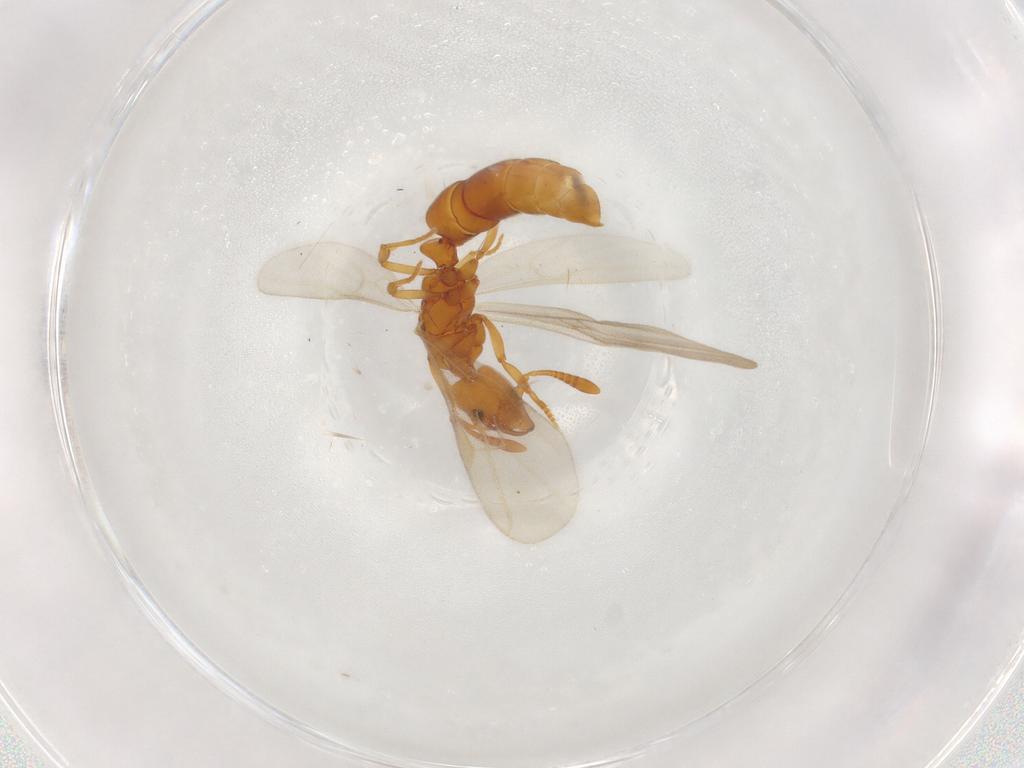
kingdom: Animalia
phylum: Arthropoda
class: Insecta
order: Hymenoptera
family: Formicidae
